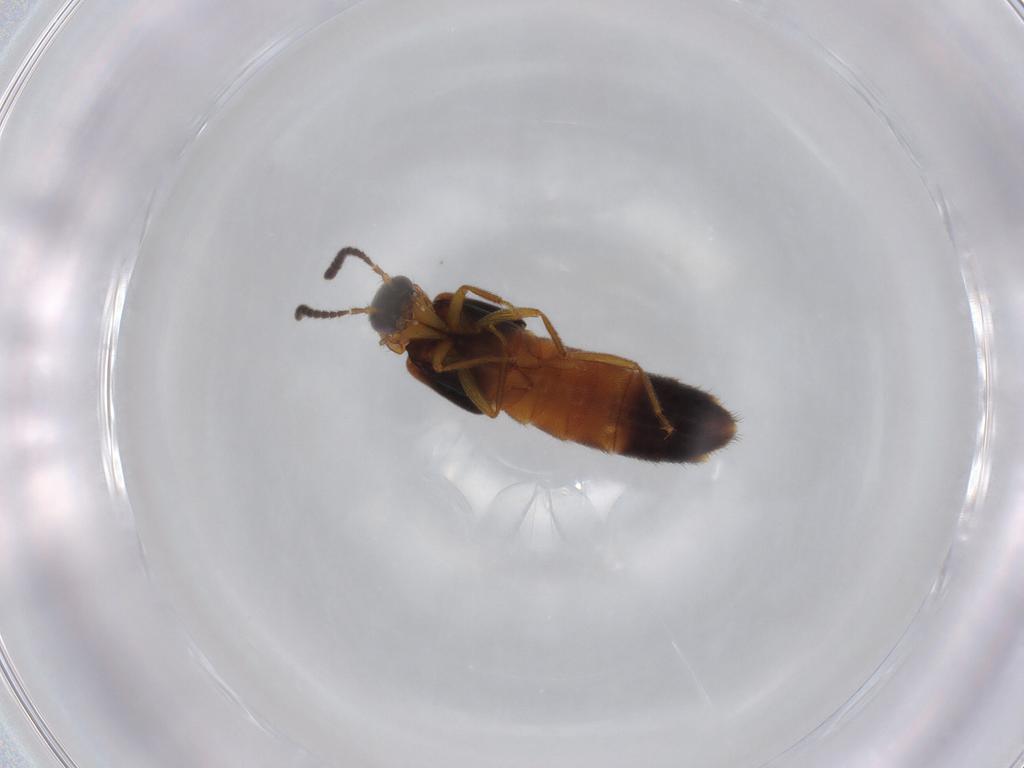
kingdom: Animalia
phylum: Arthropoda
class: Insecta
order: Coleoptera
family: Staphylinidae
